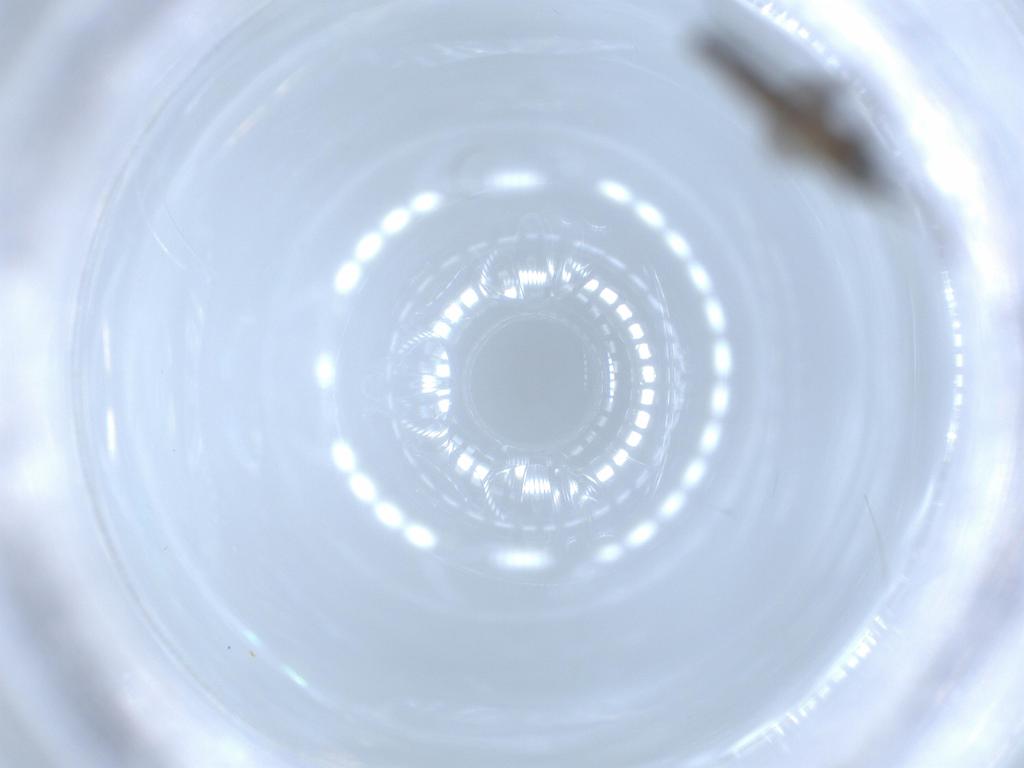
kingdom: Animalia
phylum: Arthropoda
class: Insecta
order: Diptera
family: Sciaridae
